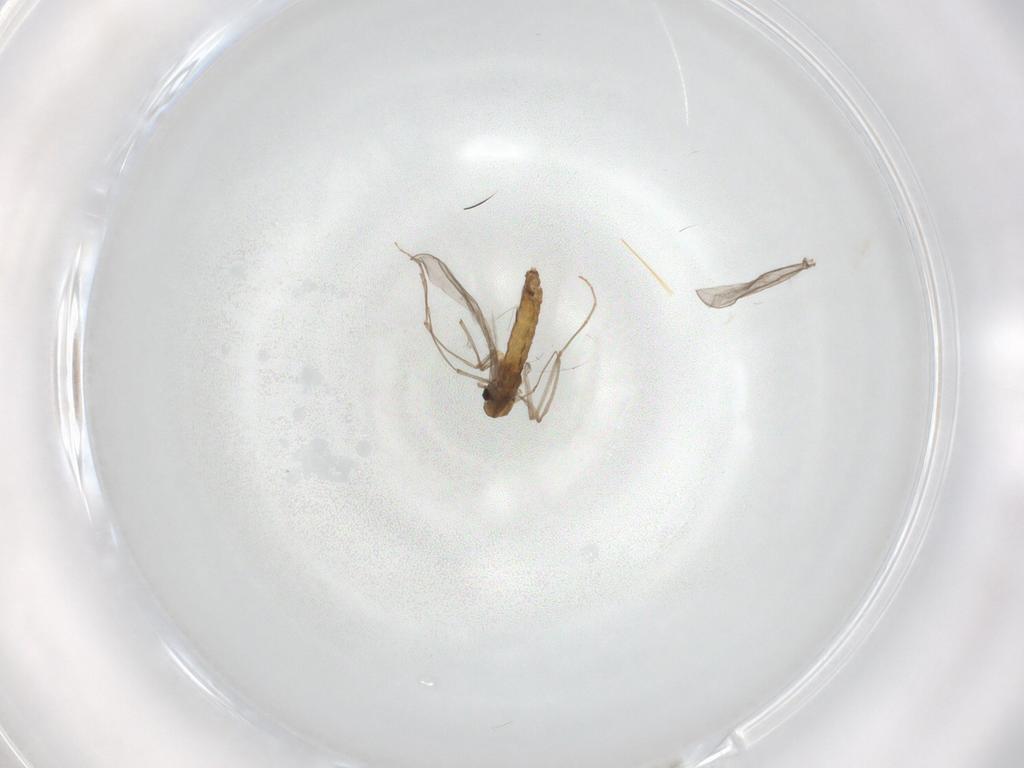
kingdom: Animalia
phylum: Arthropoda
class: Insecta
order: Diptera
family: Chironomidae
